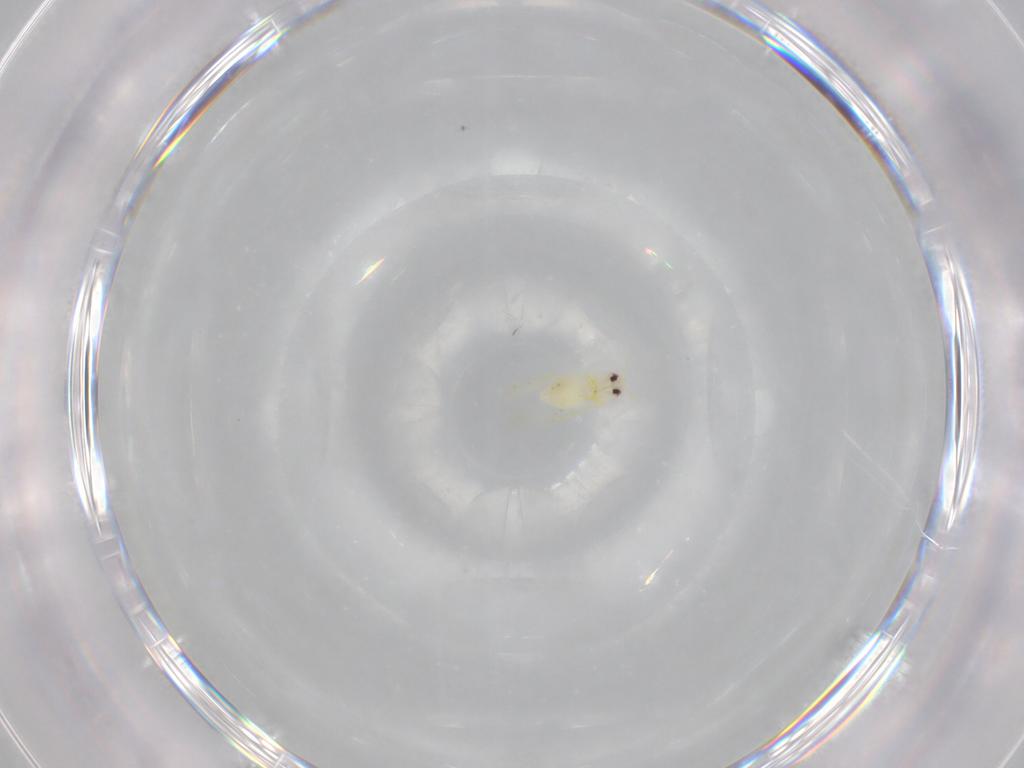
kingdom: Animalia
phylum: Arthropoda
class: Insecta
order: Hemiptera
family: Aleyrodidae
